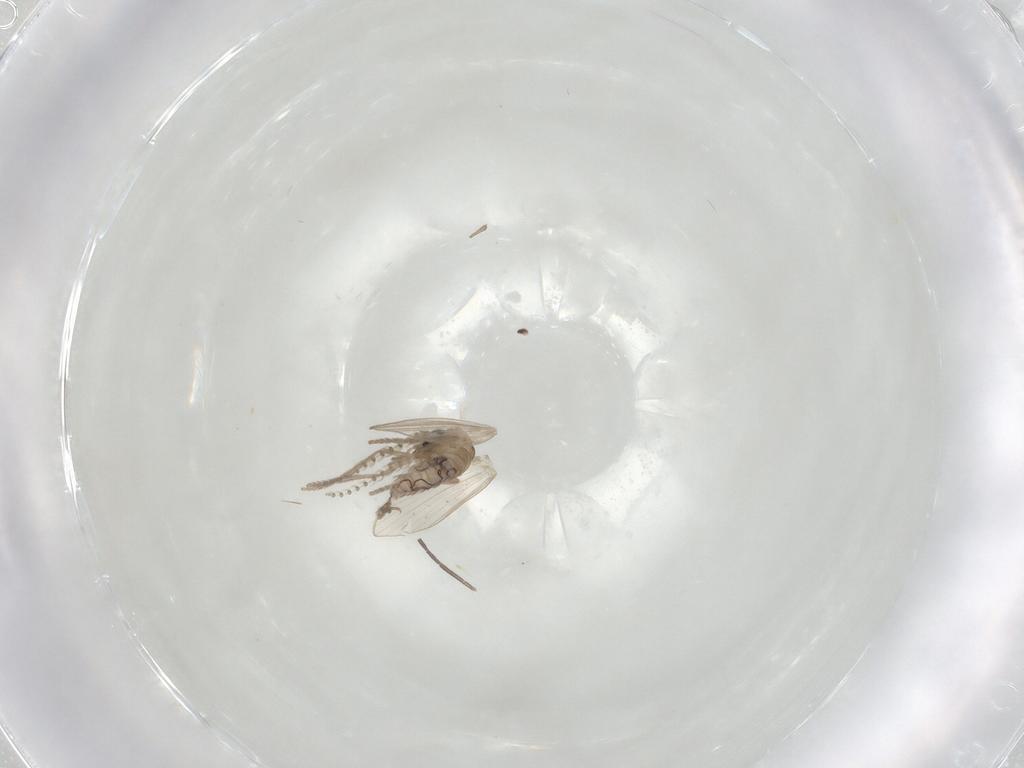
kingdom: Animalia
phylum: Arthropoda
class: Insecta
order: Diptera
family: Psychodidae
